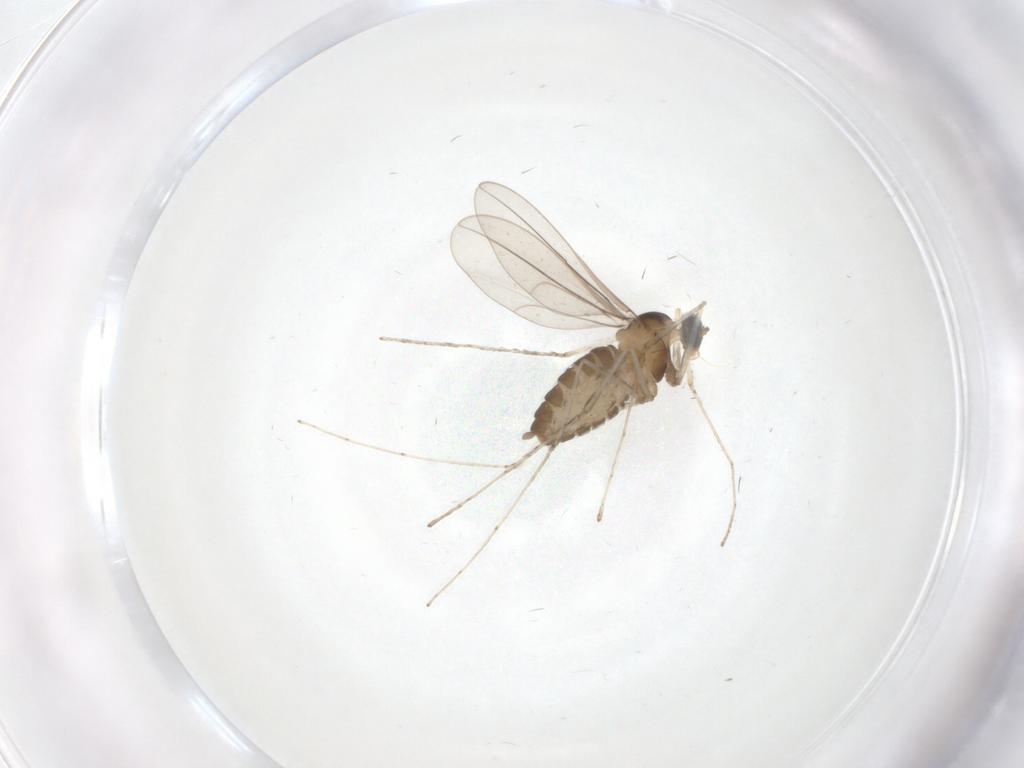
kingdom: Animalia
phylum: Arthropoda
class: Insecta
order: Diptera
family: Cecidomyiidae
